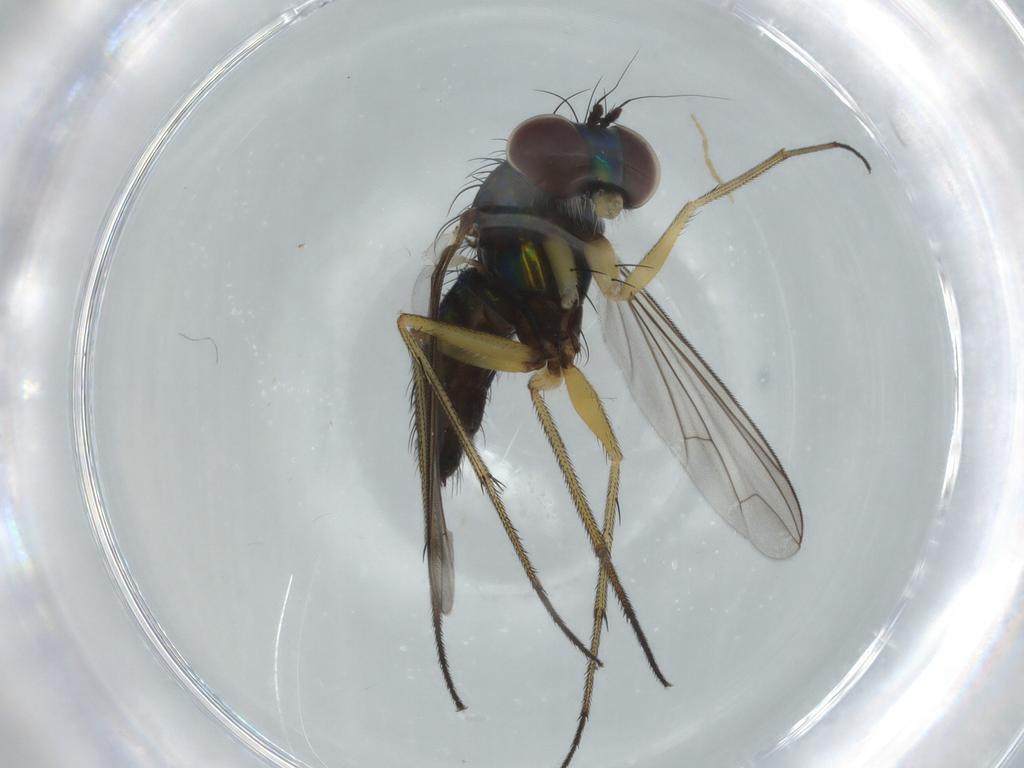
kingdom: Animalia
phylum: Arthropoda
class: Insecta
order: Diptera
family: Dolichopodidae
